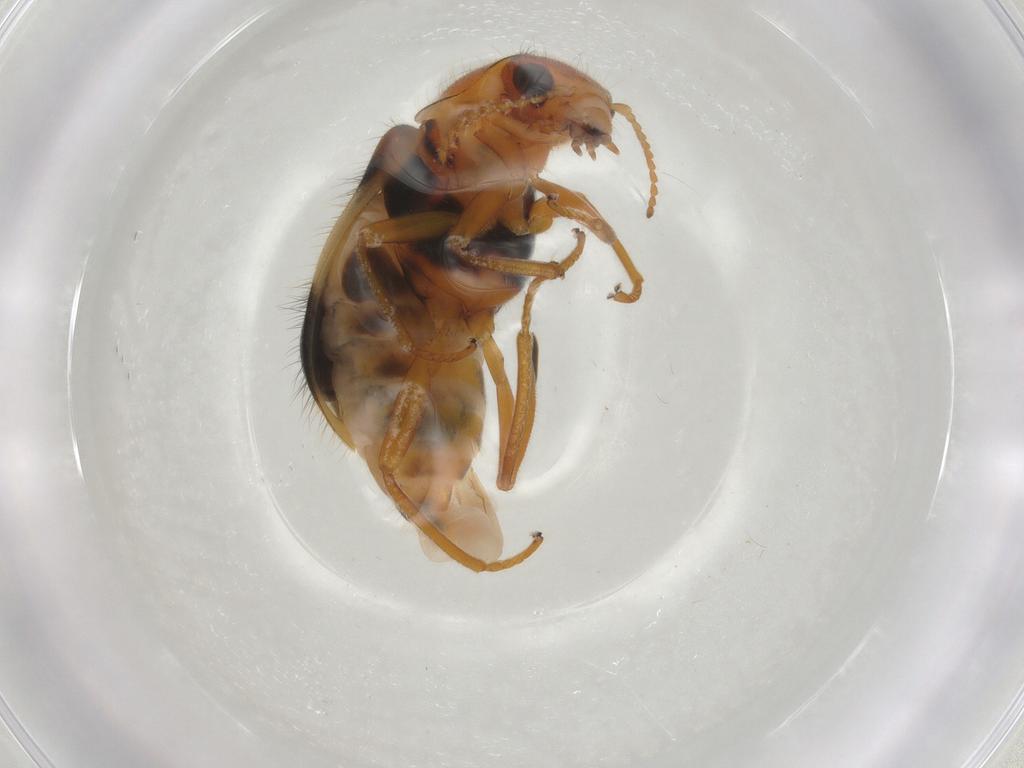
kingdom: Animalia
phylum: Arthropoda
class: Insecta
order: Coleoptera
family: Melyridae
